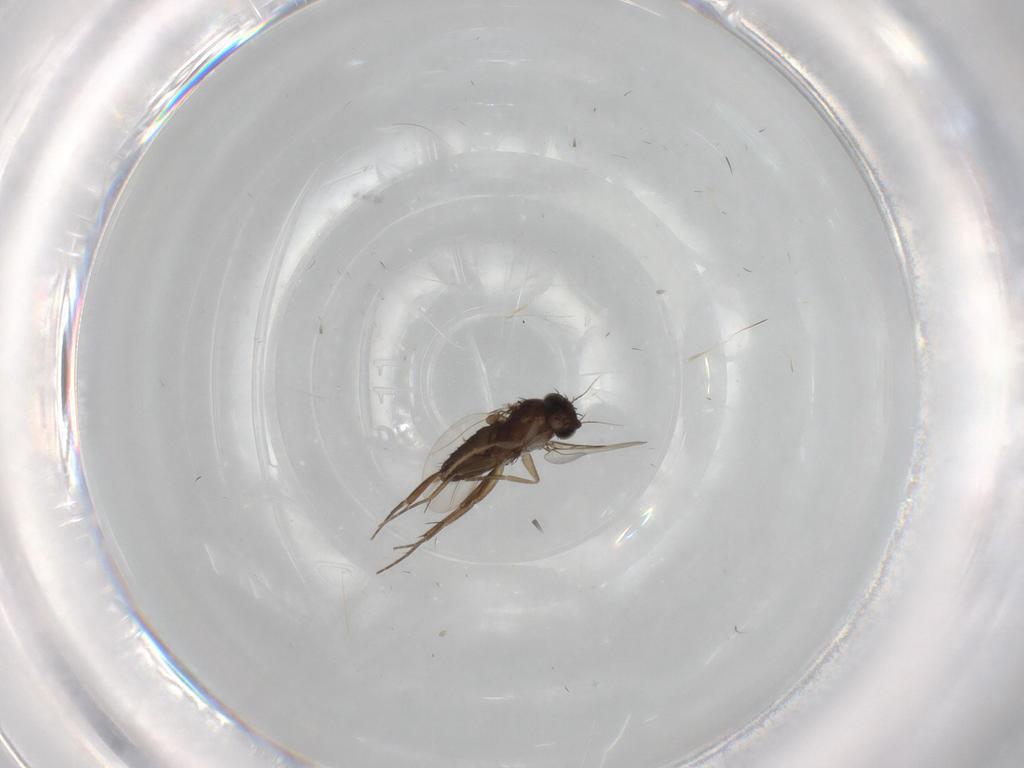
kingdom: Animalia
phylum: Arthropoda
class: Insecta
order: Diptera
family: Phoridae
